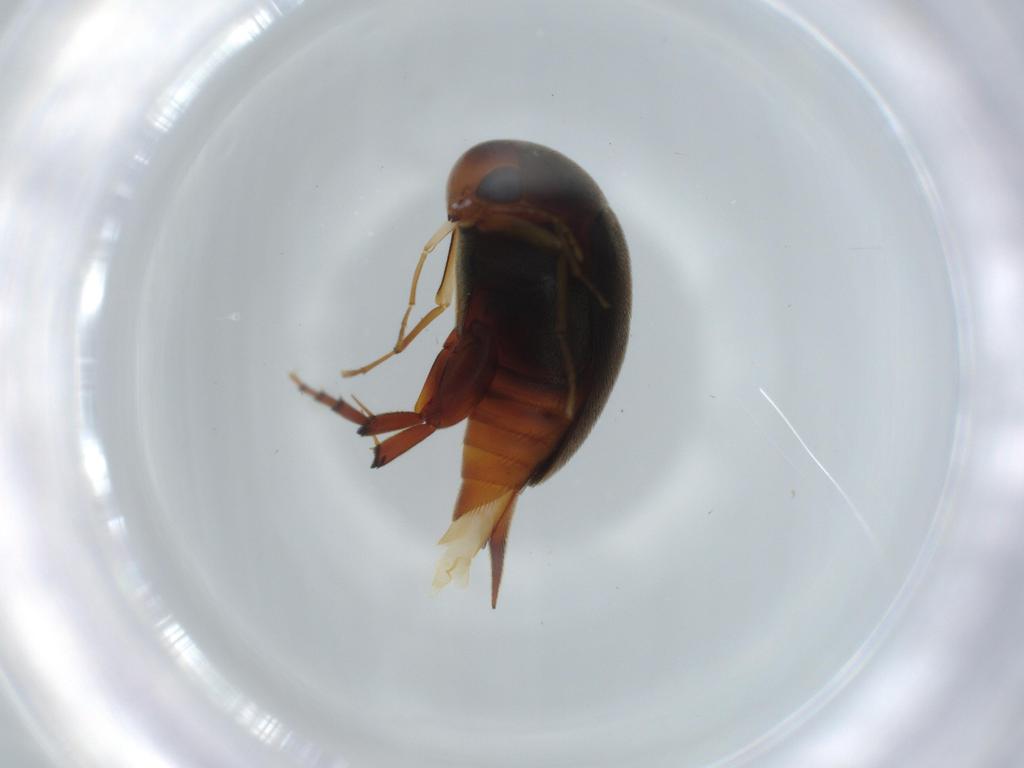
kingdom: Animalia
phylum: Arthropoda
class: Insecta
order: Coleoptera
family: Mordellidae
